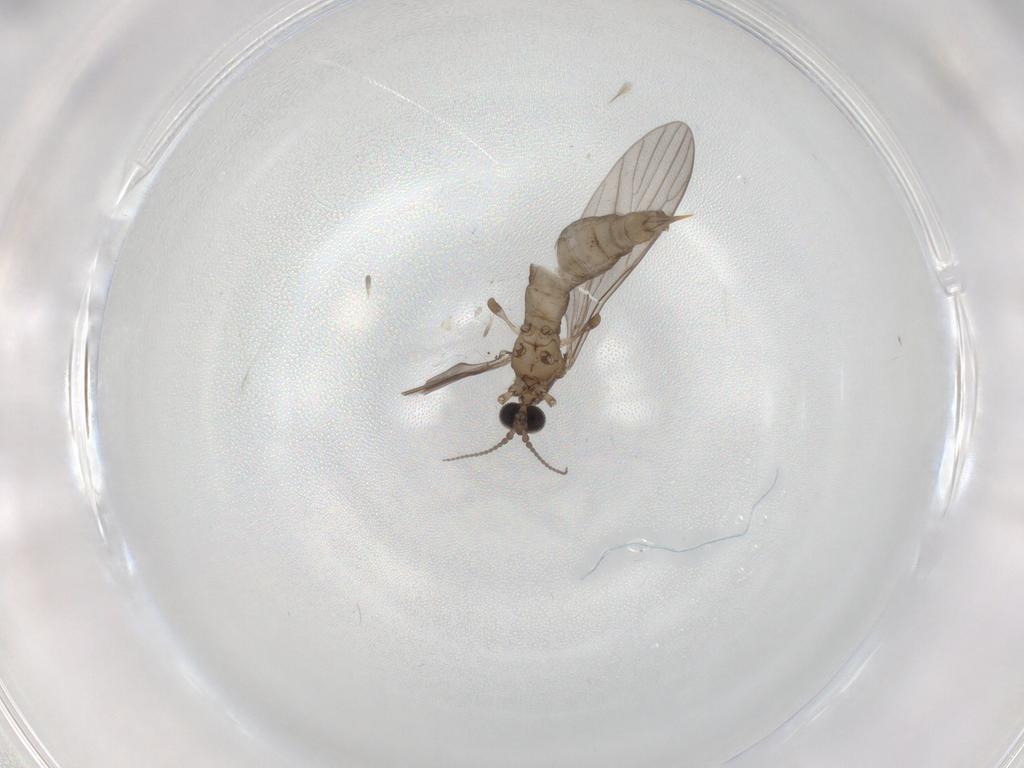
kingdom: Animalia
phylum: Arthropoda
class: Insecta
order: Diptera
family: Limoniidae
